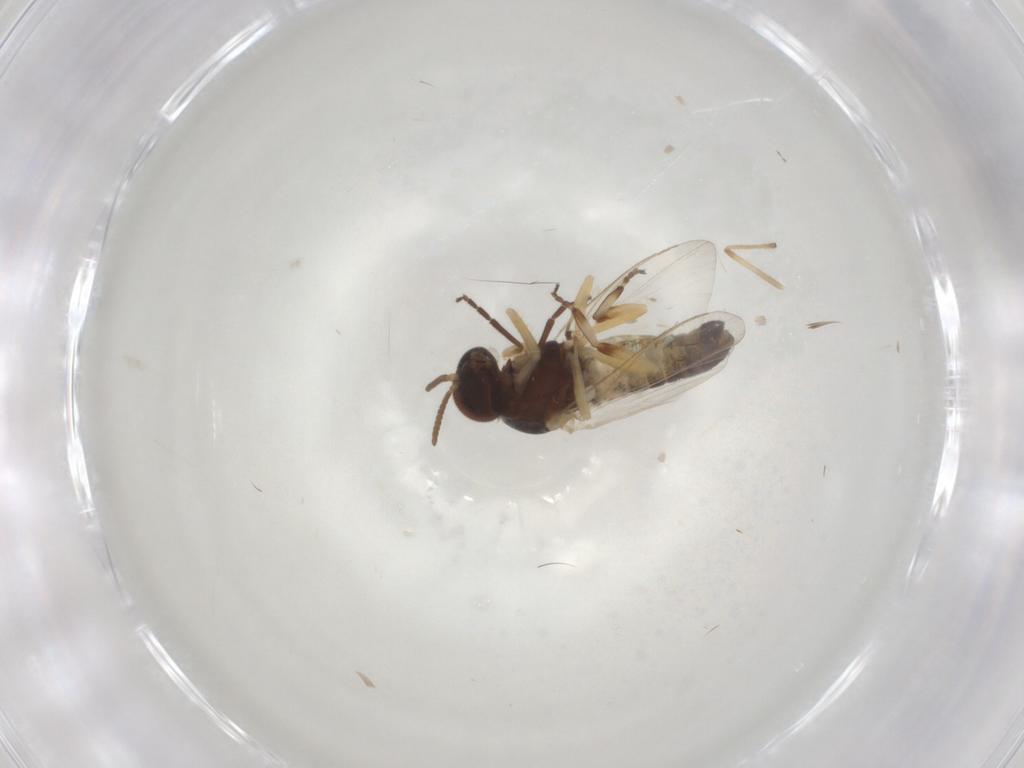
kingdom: Animalia
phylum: Arthropoda
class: Insecta
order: Diptera
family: Simuliidae
